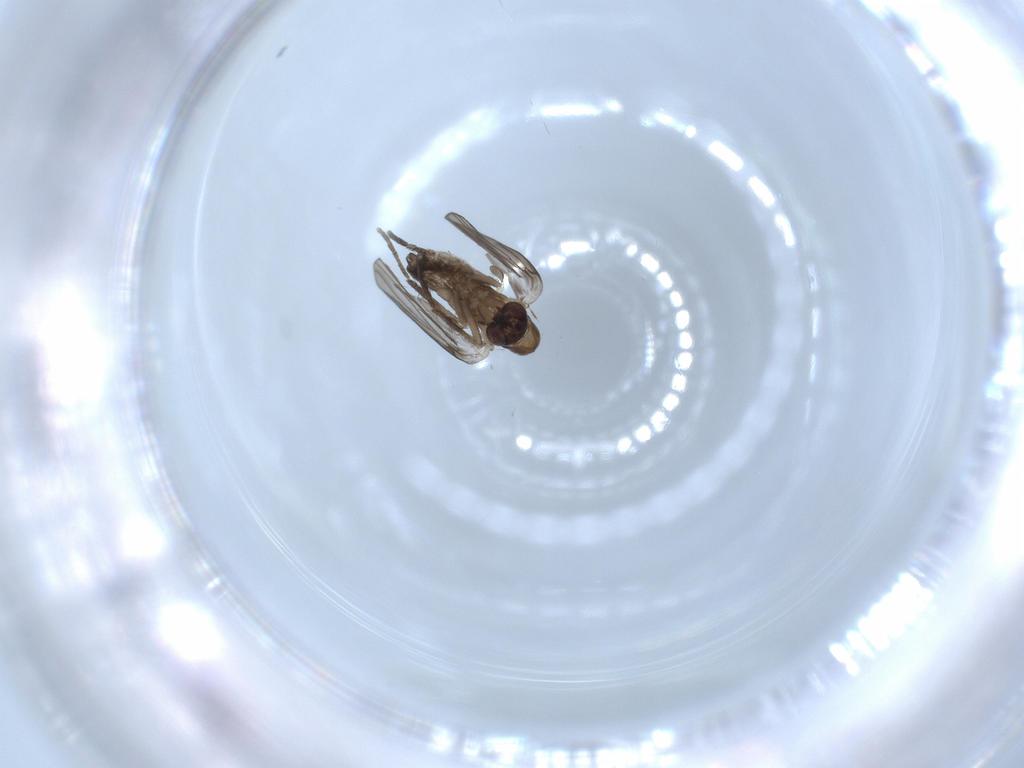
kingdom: Animalia
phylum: Arthropoda
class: Insecta
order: Diptera
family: Psychodidae
